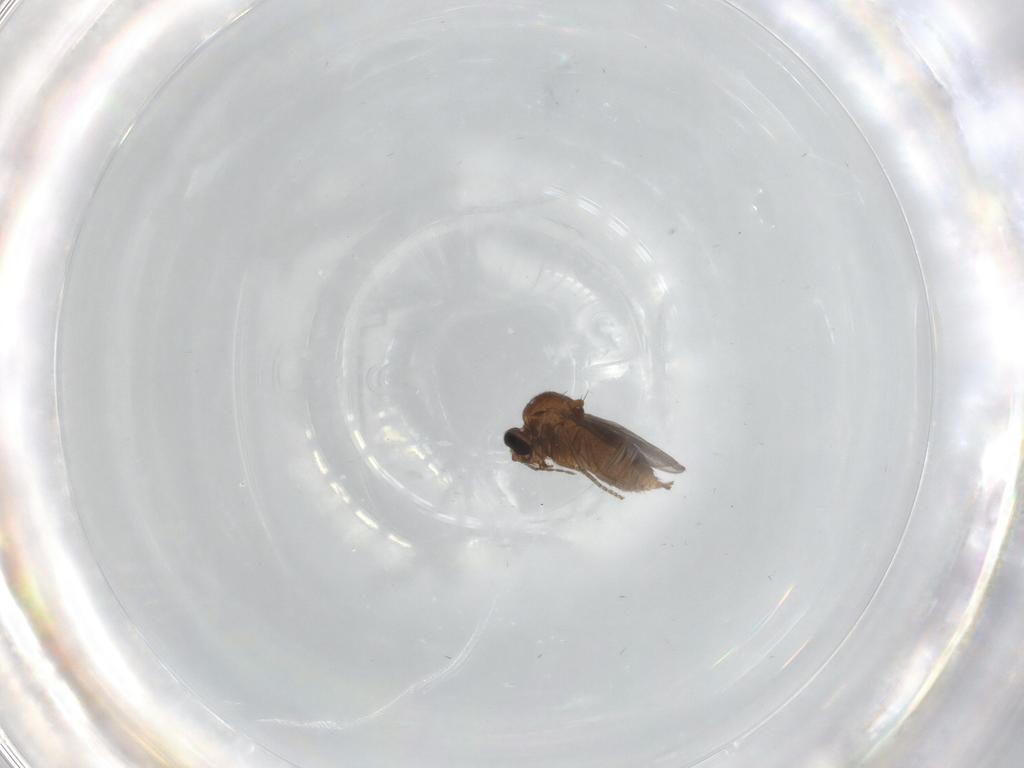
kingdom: Animalia
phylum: Arthropoda
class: Insecta
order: Diptera
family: Ceratopogonidae
